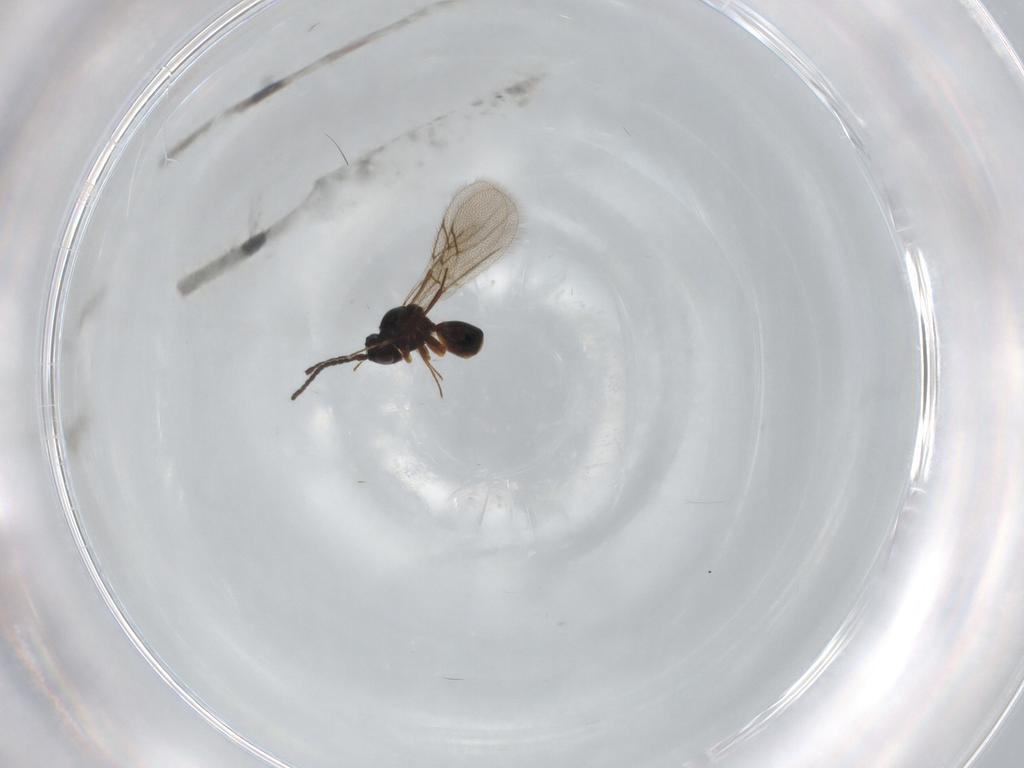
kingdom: Animalia
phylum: Arthropoda
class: Insecta
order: Hymenoptera
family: Figitidae
